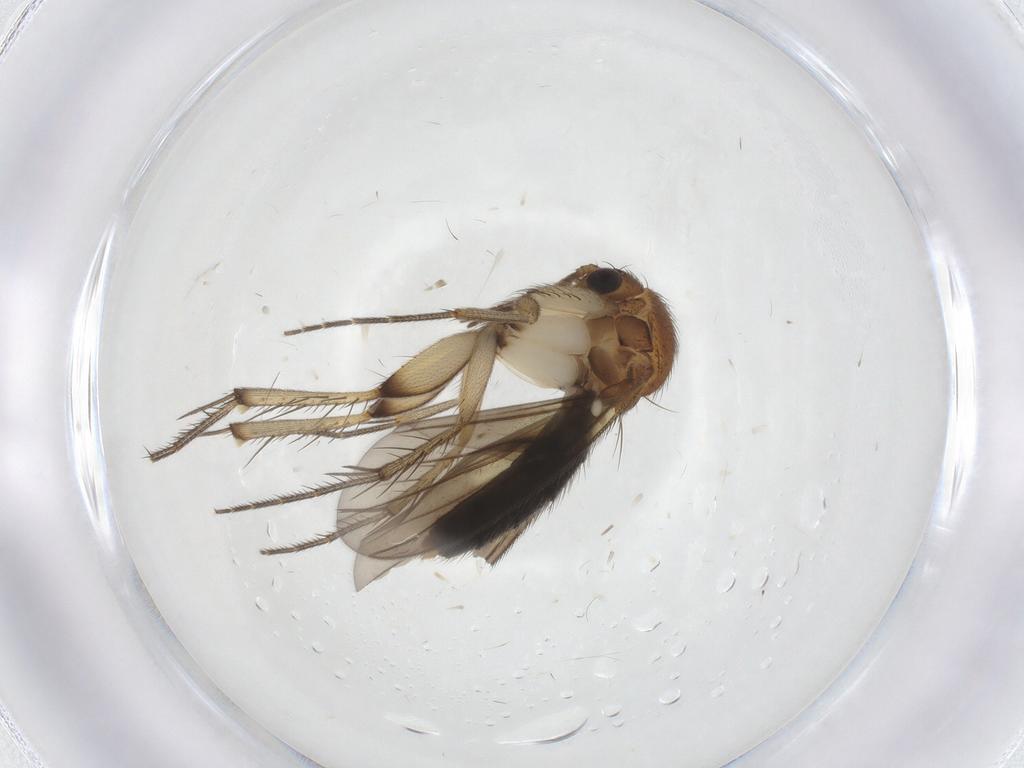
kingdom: Animalia
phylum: Arthropoda
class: Insecta
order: Diptera
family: Mycetophilidae
